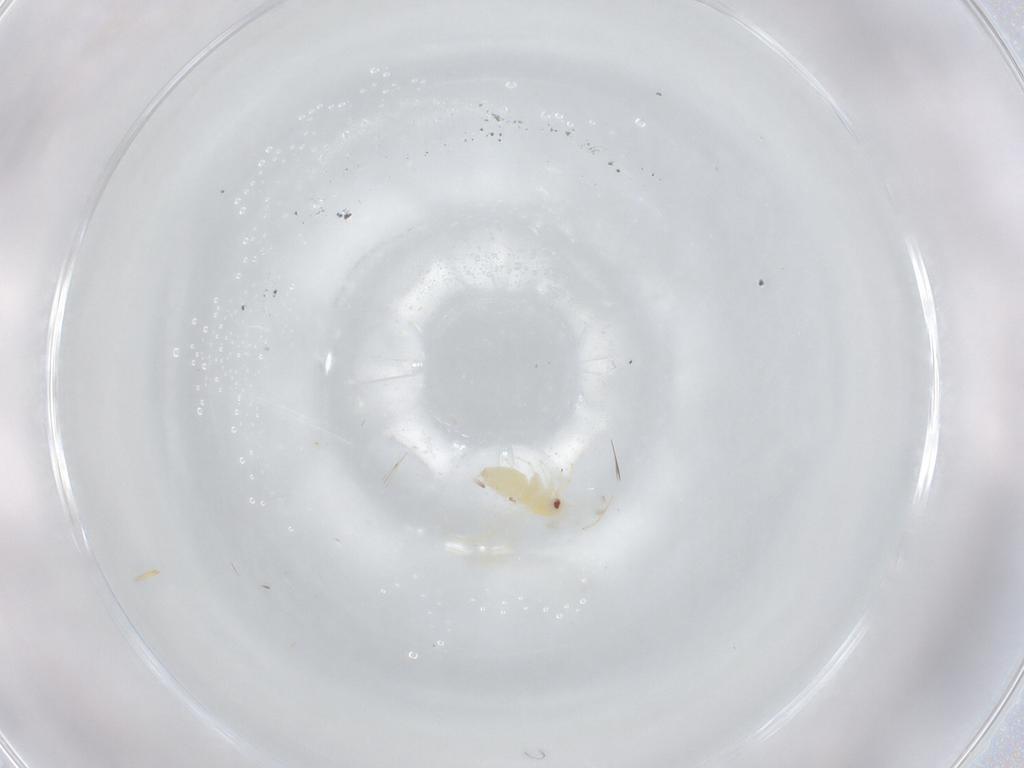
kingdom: Animalia
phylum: Arthropoda
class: Insecta
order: Hemiptera
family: Aleyrodidae
